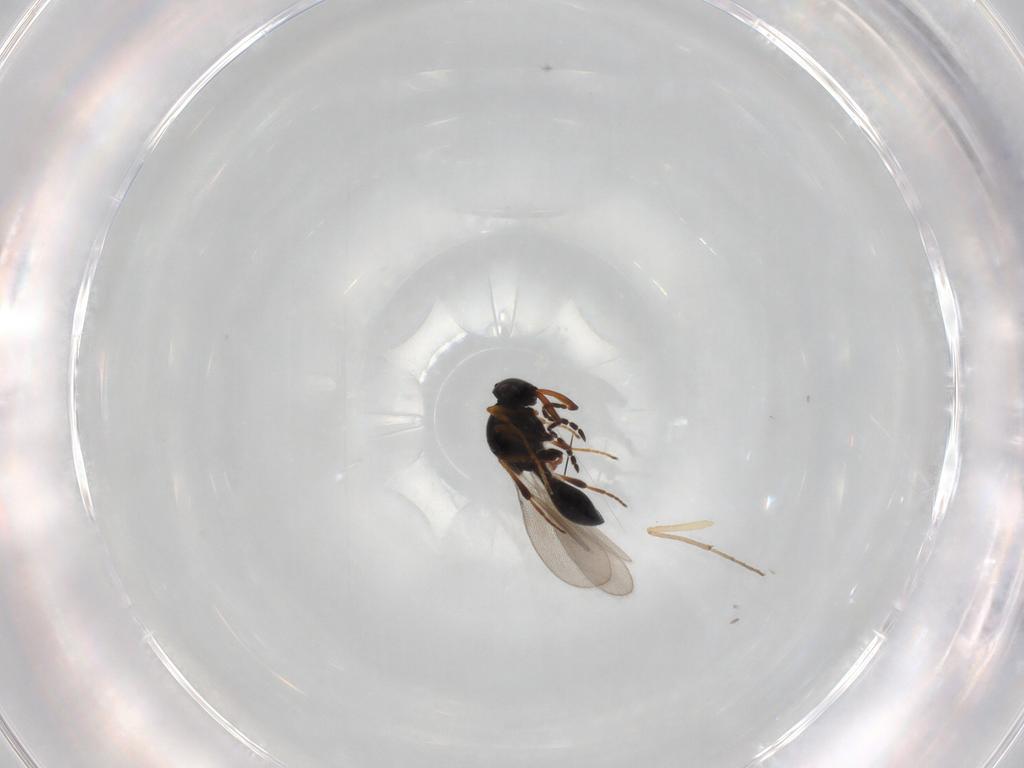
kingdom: Animalia
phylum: Arthropoda
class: Insecta
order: Hymenoptera
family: Platygastridae
